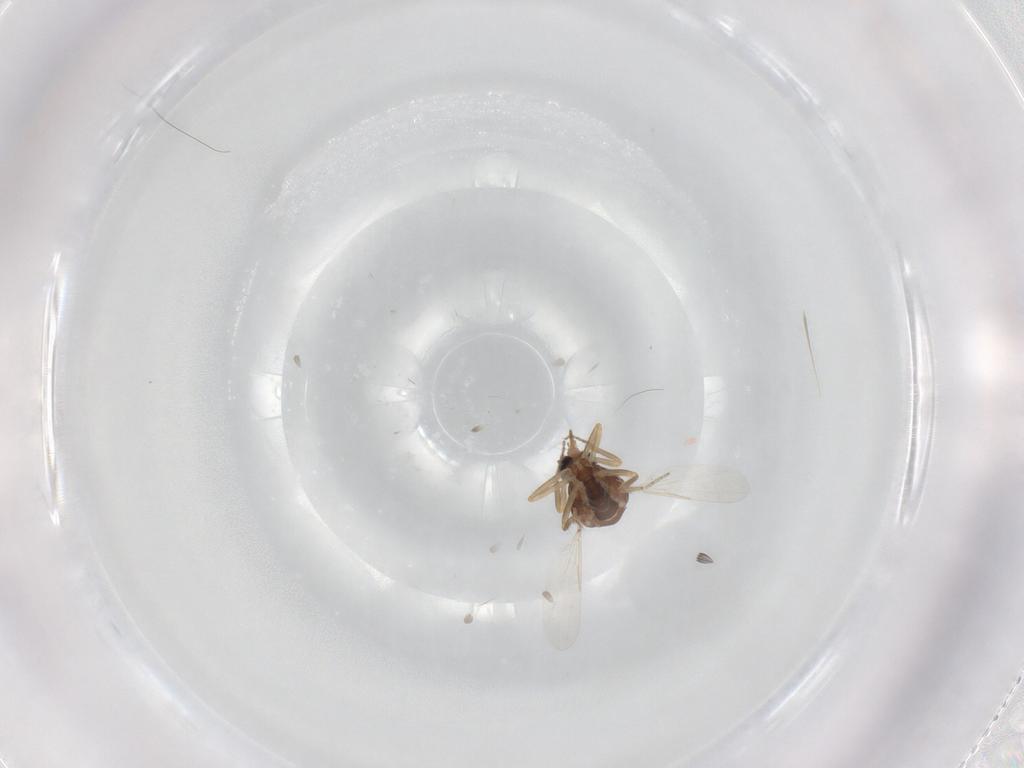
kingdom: Animalia
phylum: Arthropoda
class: Insecta
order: Diptera
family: Ceratopogonidae
